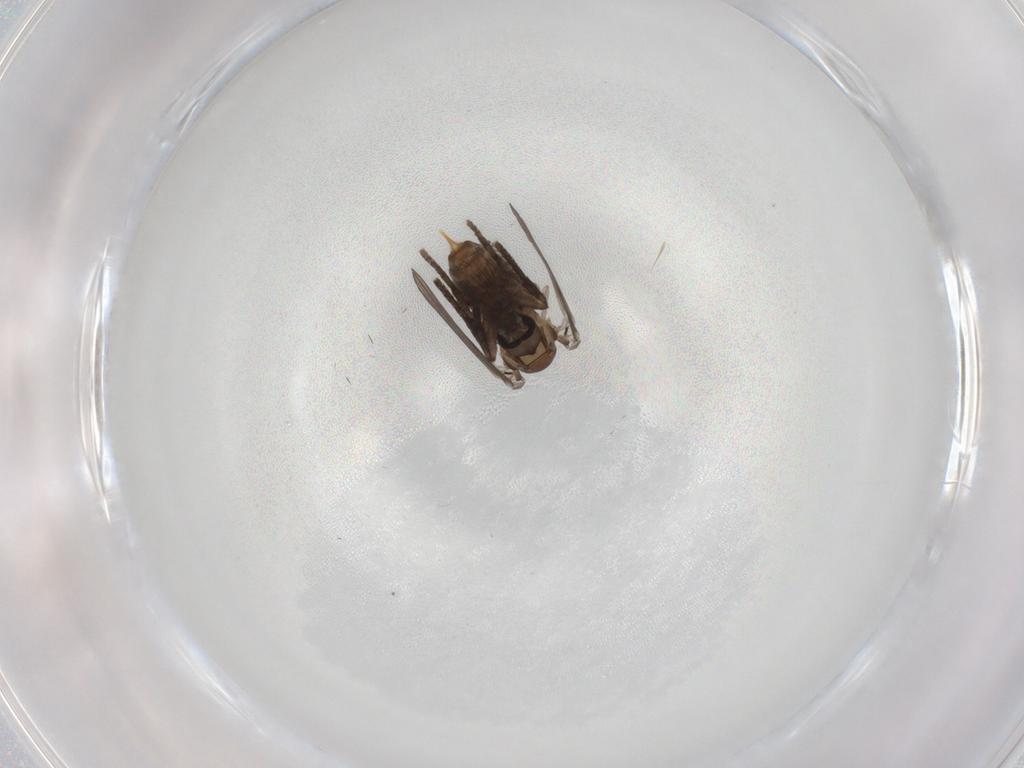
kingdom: Animalia
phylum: Arthropoda
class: Insecta
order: Diptera
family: Psychodidae
